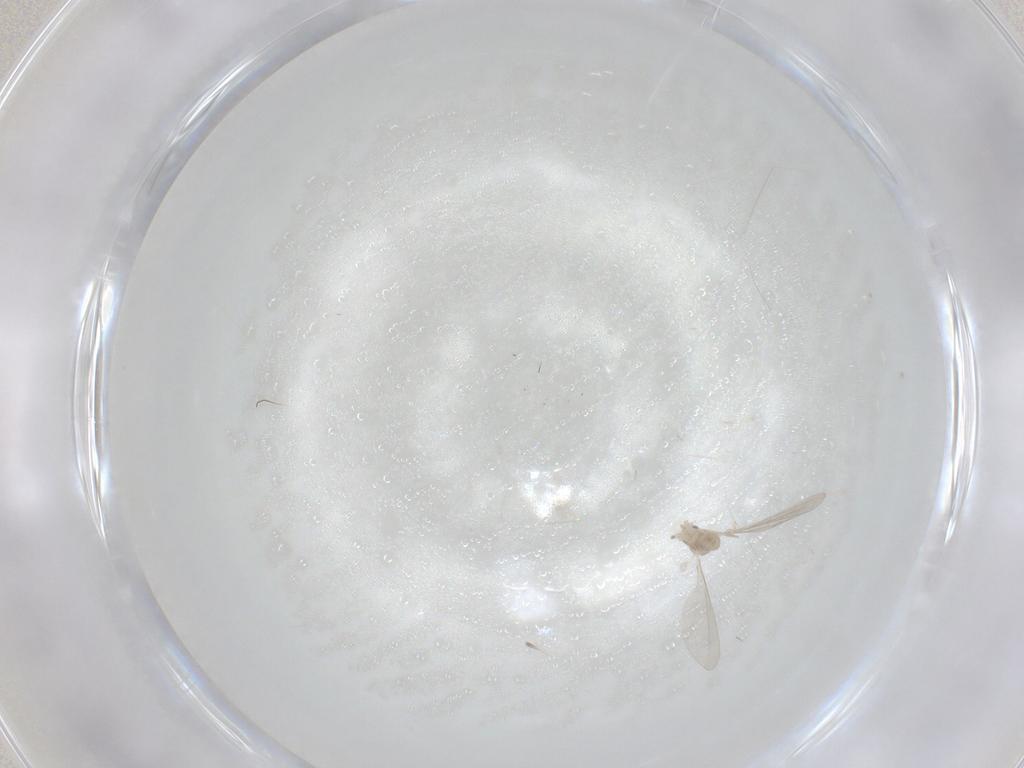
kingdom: Animalia
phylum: Arthropoda
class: Insecta
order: Diptera
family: Cecidomyiidae
